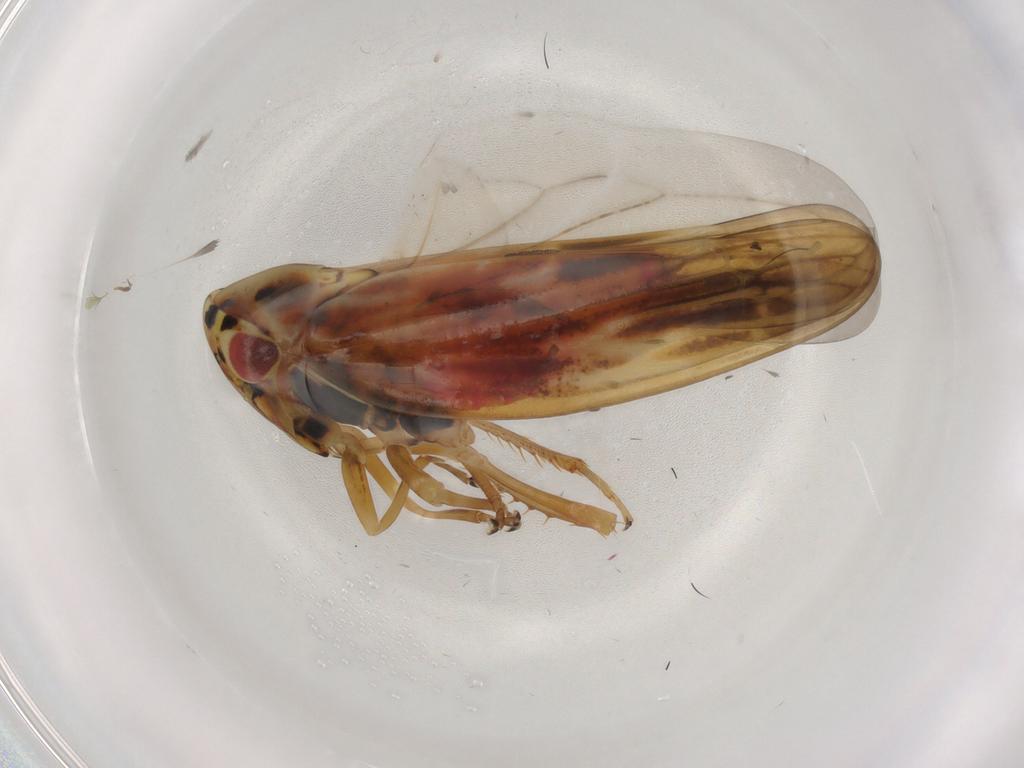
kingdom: Animalia
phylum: Arthropoda
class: Insecta
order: Hemiptera
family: Cicadellidae
